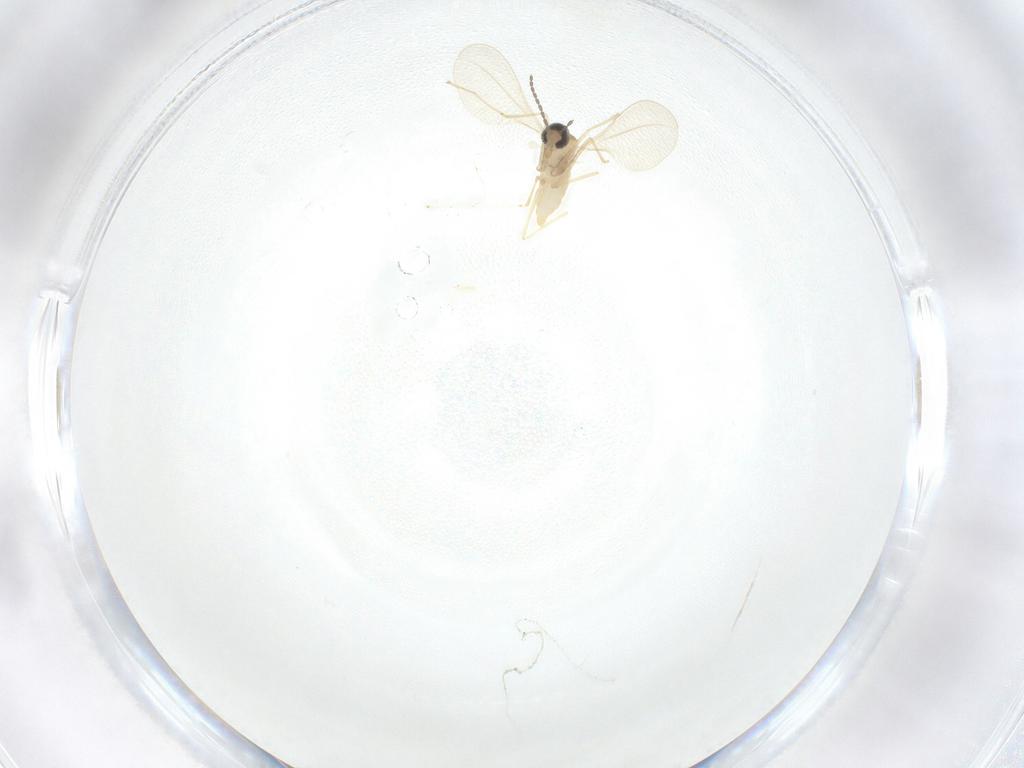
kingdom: Animalia
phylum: Arthropoda
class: Insecta
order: Diptera
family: Cecidomyiidae
